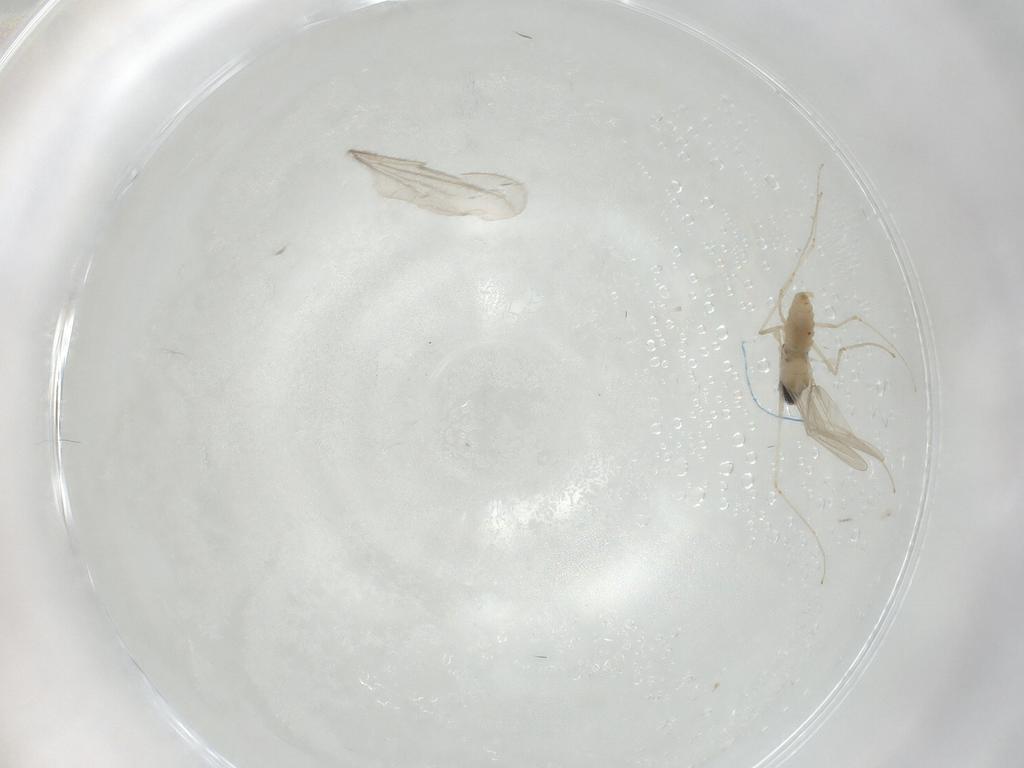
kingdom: Animalia
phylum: Arthropoda
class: Insecta
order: Diptera
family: Cecidomyiidae
